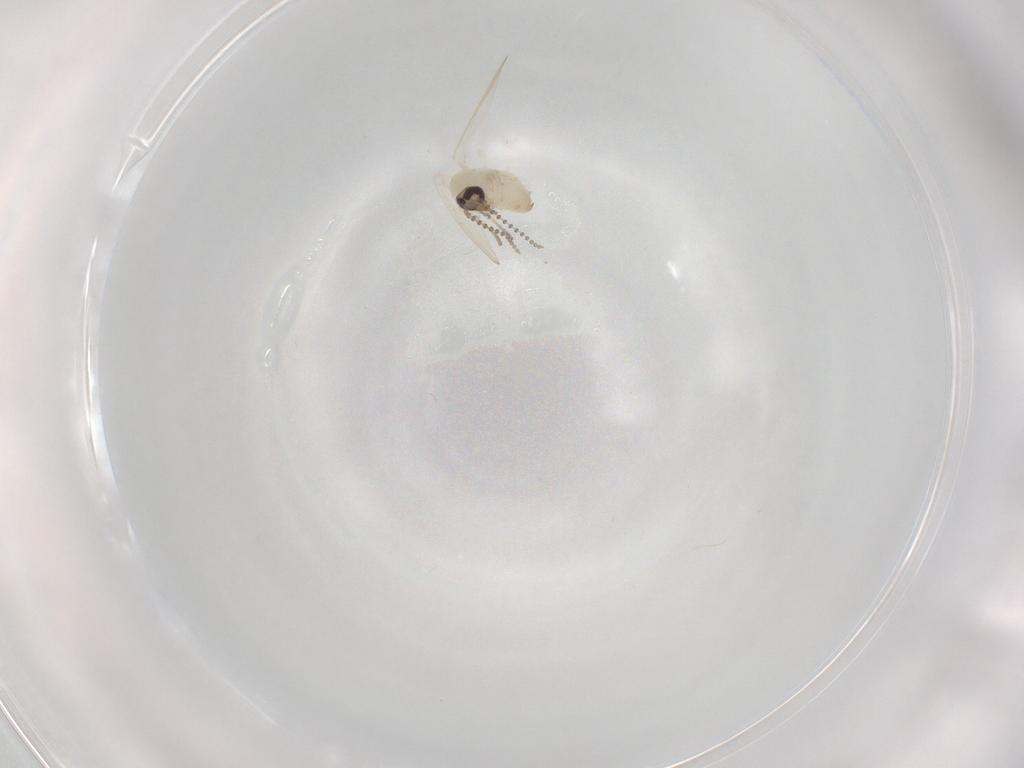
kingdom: Animalia
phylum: Arthropoda
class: Insecta
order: Diptera
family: Psychodidae
